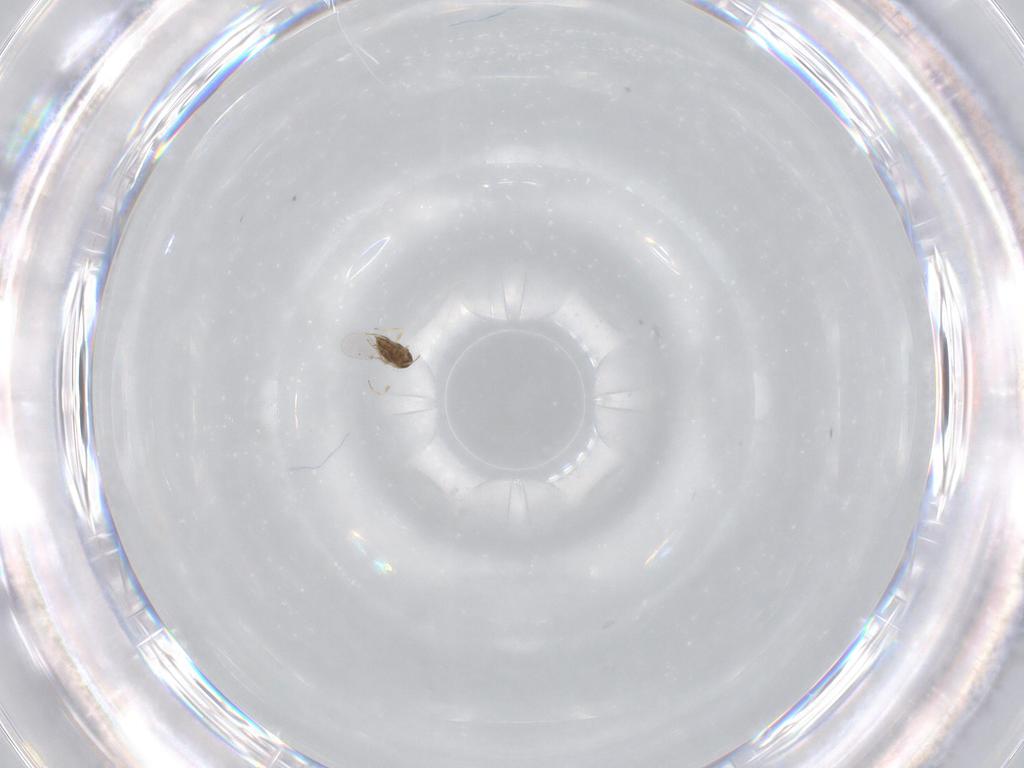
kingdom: Animalia
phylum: Arthropoda
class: Insecta
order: Hymenoptera
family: Encyrtidae
